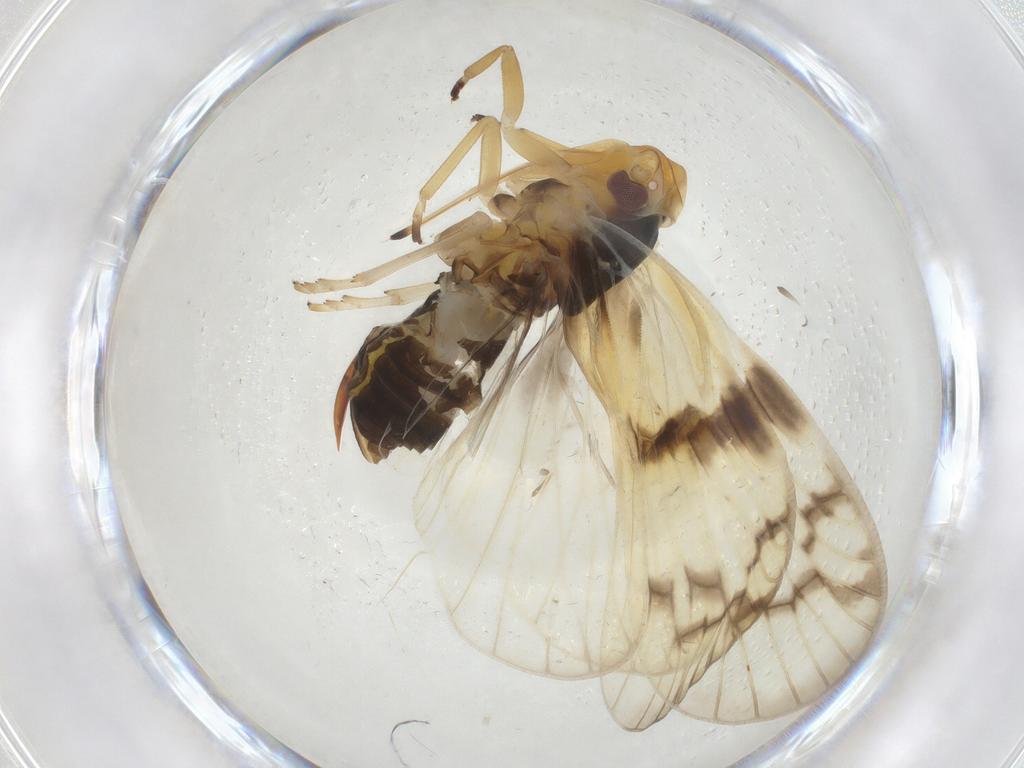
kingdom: Animalia
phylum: Arthropoda
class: Insecta
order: Hemiptera
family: Cixiidae
